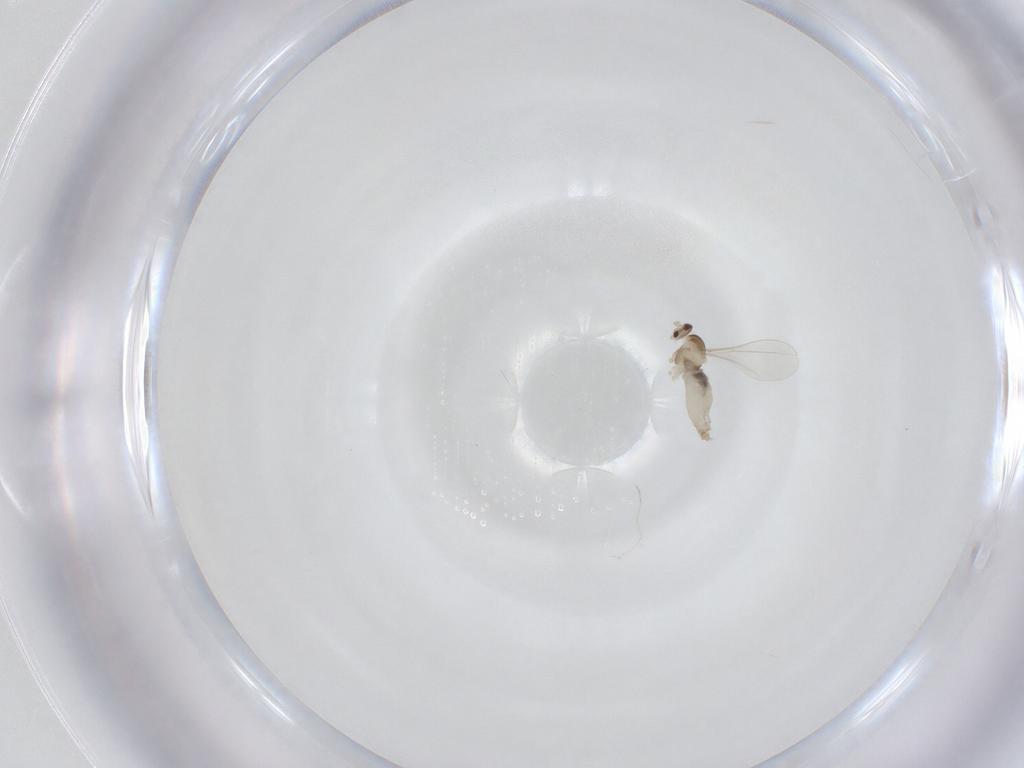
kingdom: Animalia
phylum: Arthropoda
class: Insecta
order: Diptera
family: Cecidomyiidae
